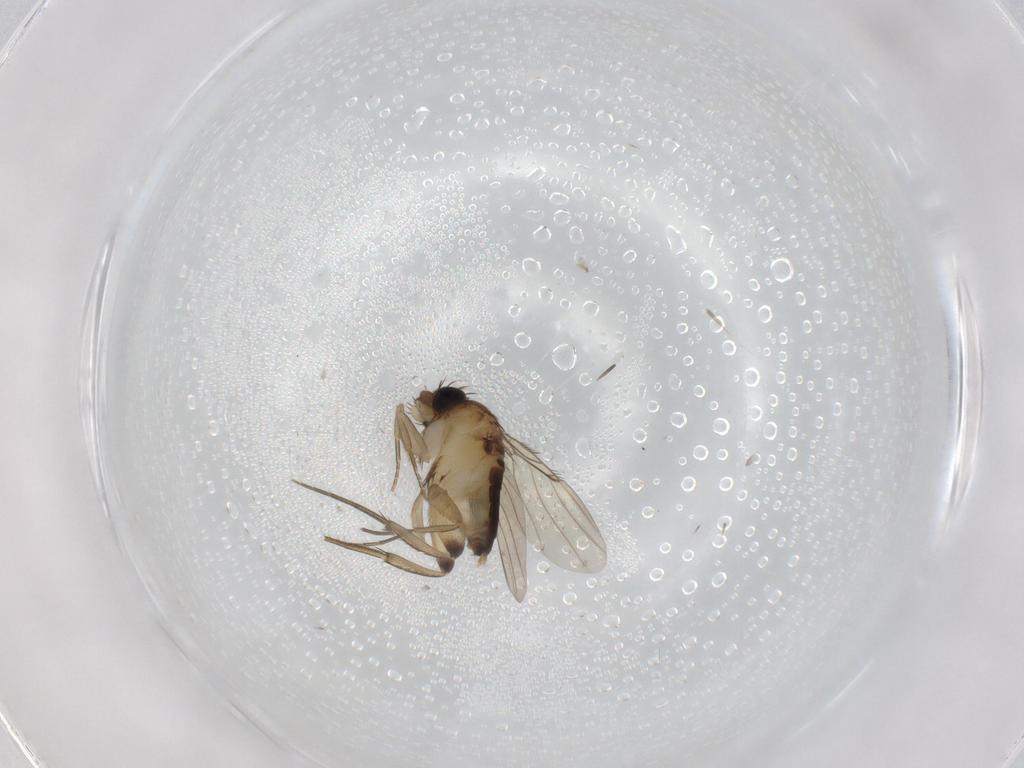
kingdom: Animalia
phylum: Arthropoda
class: Insecta
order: Diptera
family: Phoridae
